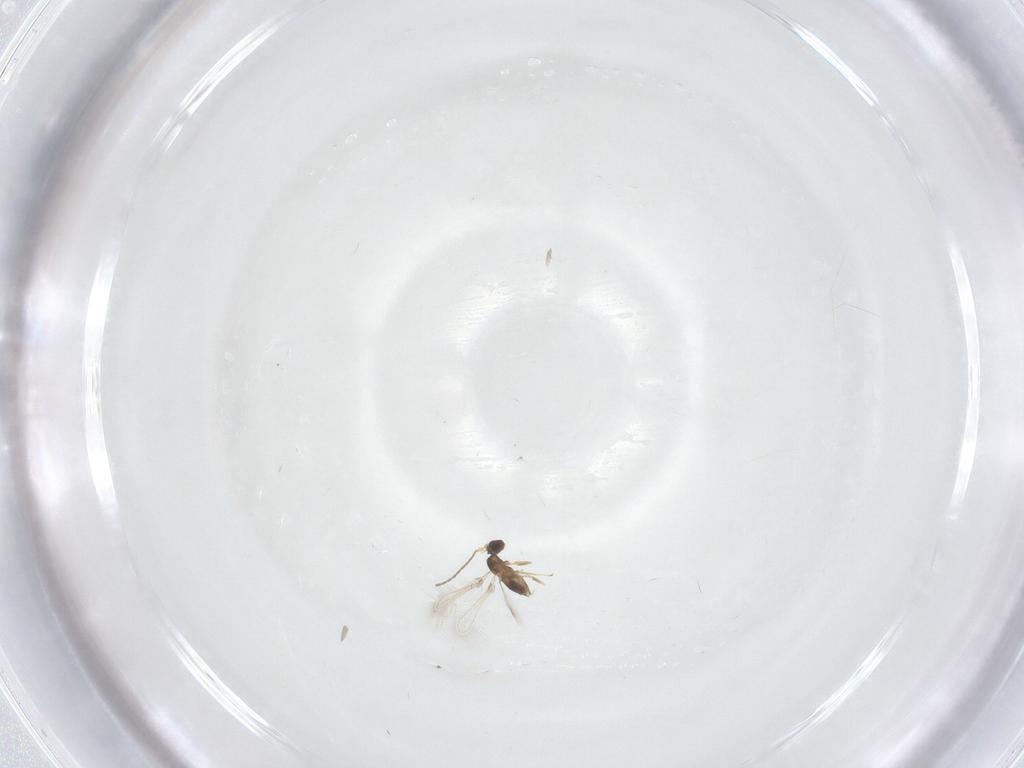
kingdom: Animalia
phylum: Arthropoda
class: Insecta
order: Hymenoptera
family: Mymaridae
